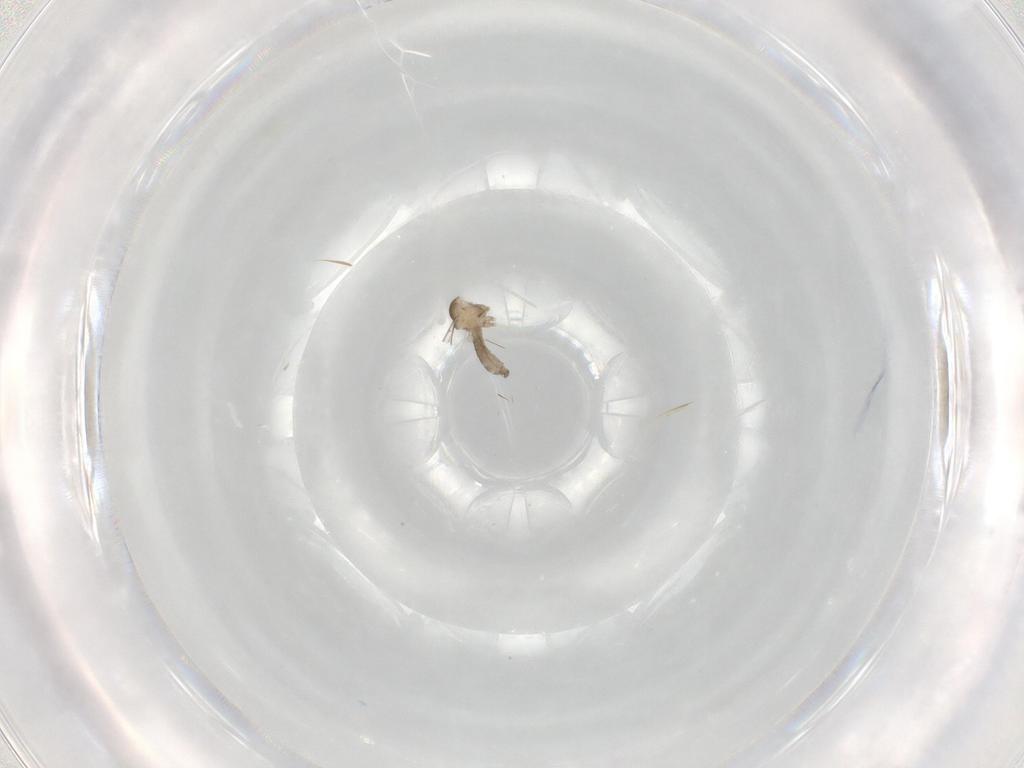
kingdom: Animalia
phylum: Arthropoda
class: Insecta
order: Diptera
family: Cecidomyiidae
